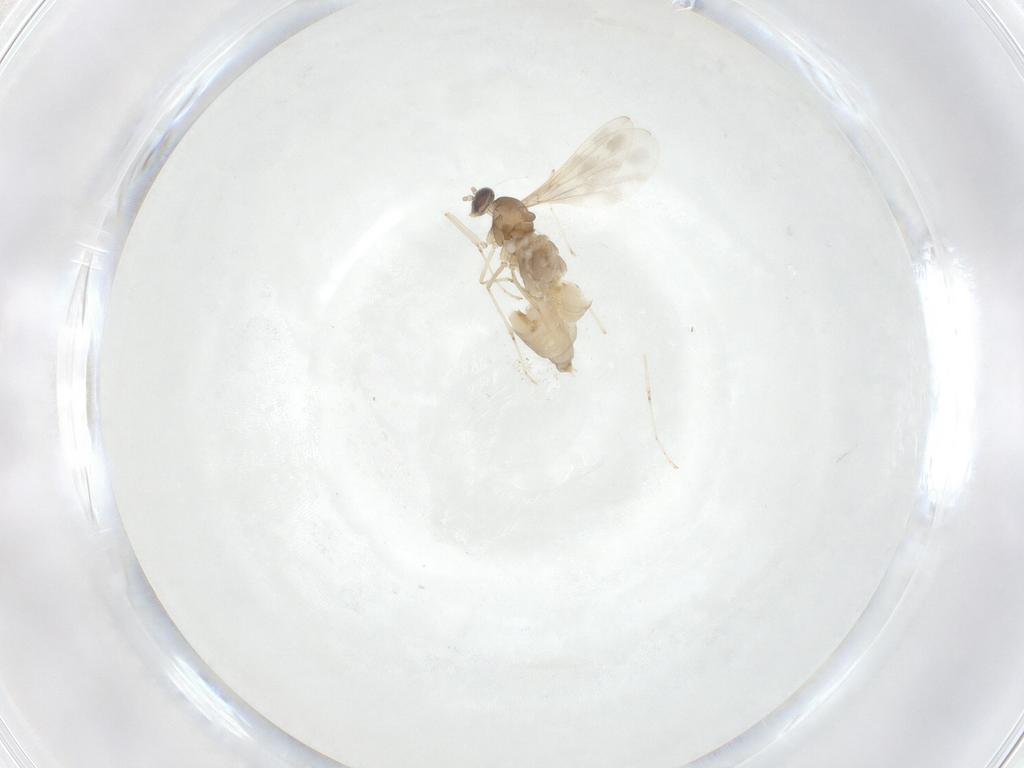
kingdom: Animalia
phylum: Arthropoda
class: Insecta
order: Diptera
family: Cecidomyiidae
